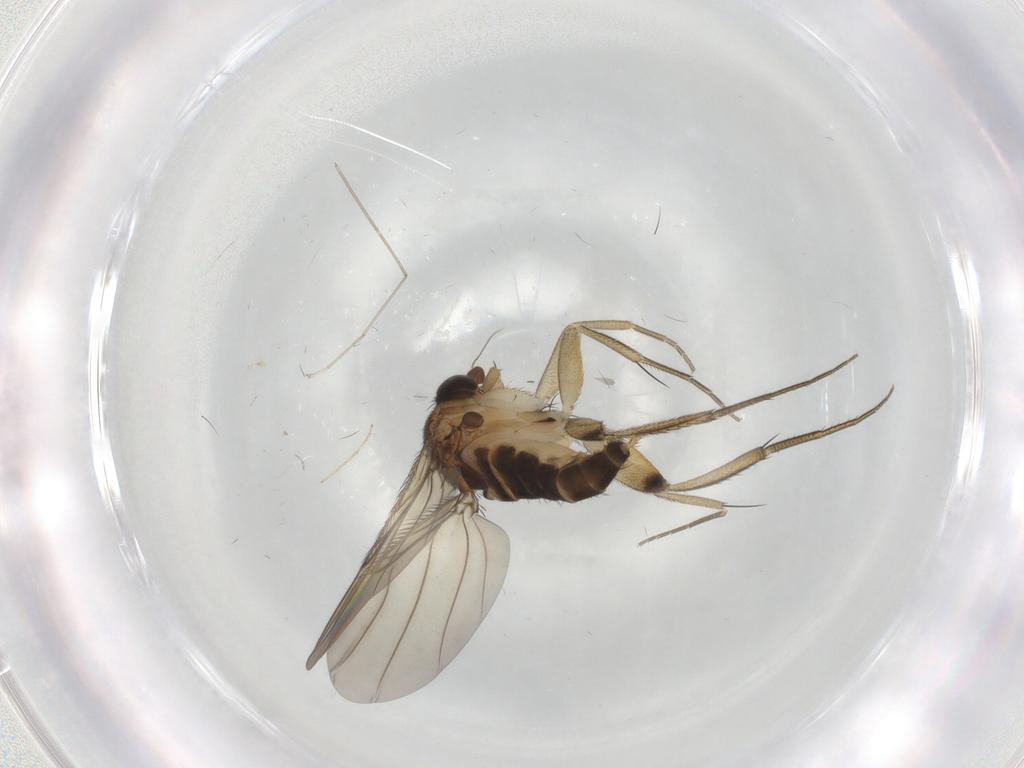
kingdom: Animalia
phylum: Arthropoda
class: Insecta
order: Diptera
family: Phoridae
